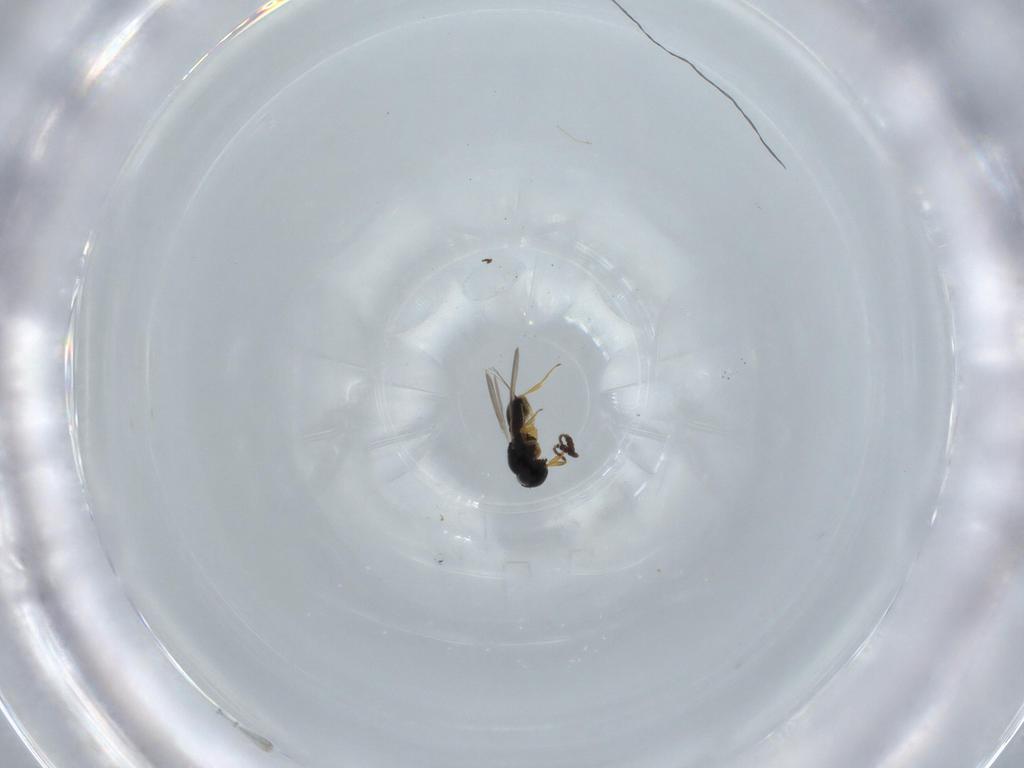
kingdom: Animalia
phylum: Arthropoda
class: Insecta
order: Hymenoptera
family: Scelionidae
